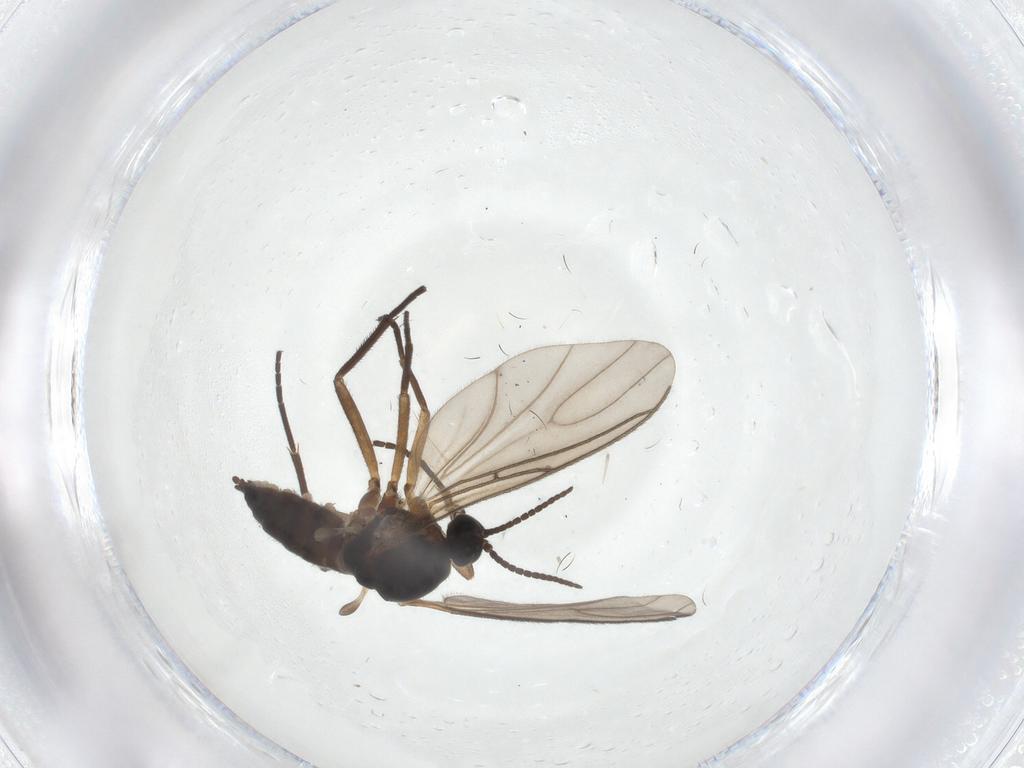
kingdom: Animalia
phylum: Arthropoda
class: Insecta
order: Diptera
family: Sciaridae
